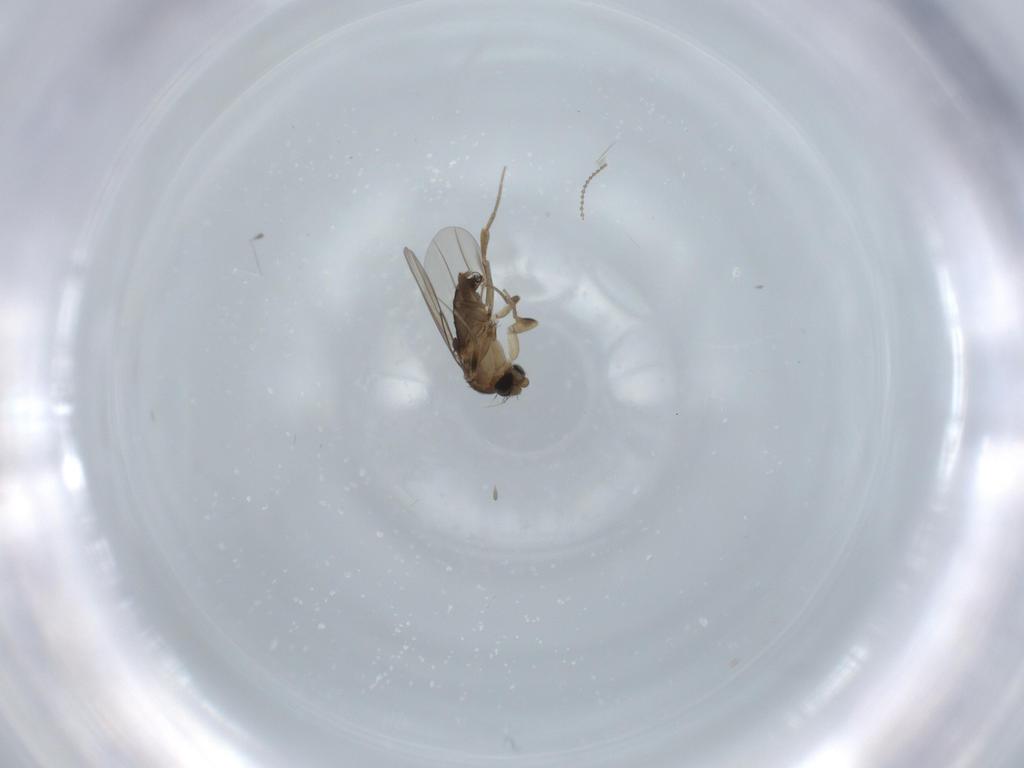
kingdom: Animalia
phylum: Arthropoda
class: Insecta
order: Diptera
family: Phoridae
